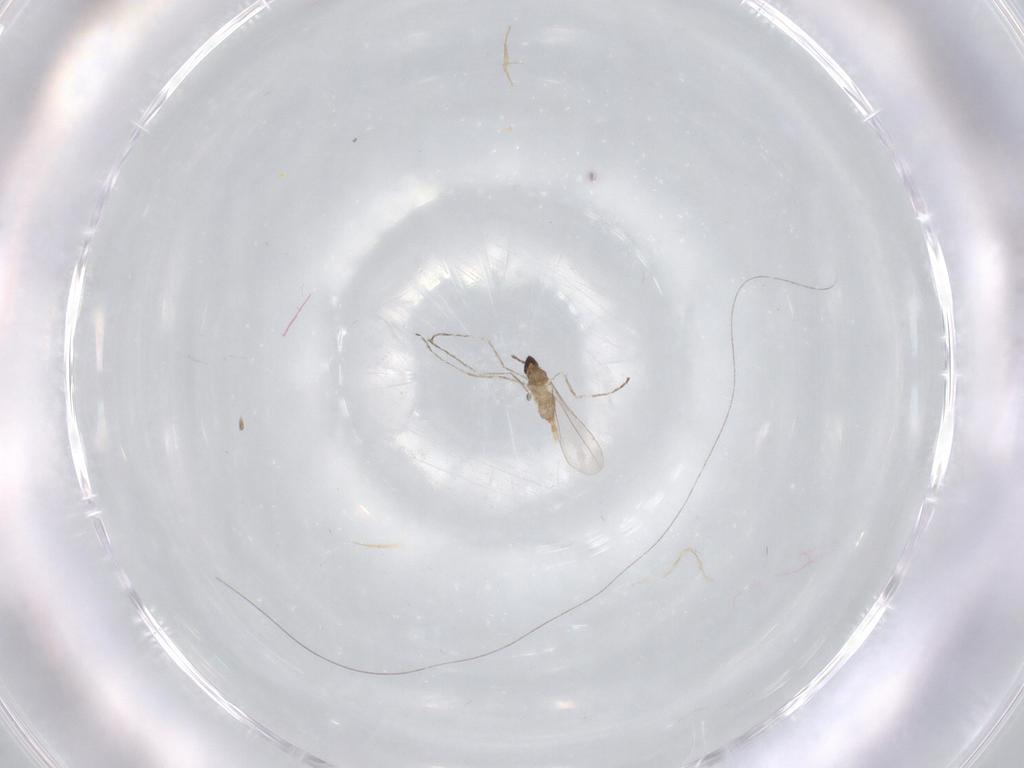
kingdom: Animalia
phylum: Arthropoda
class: Insecta
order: Diptera
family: Cecidomyiidae
